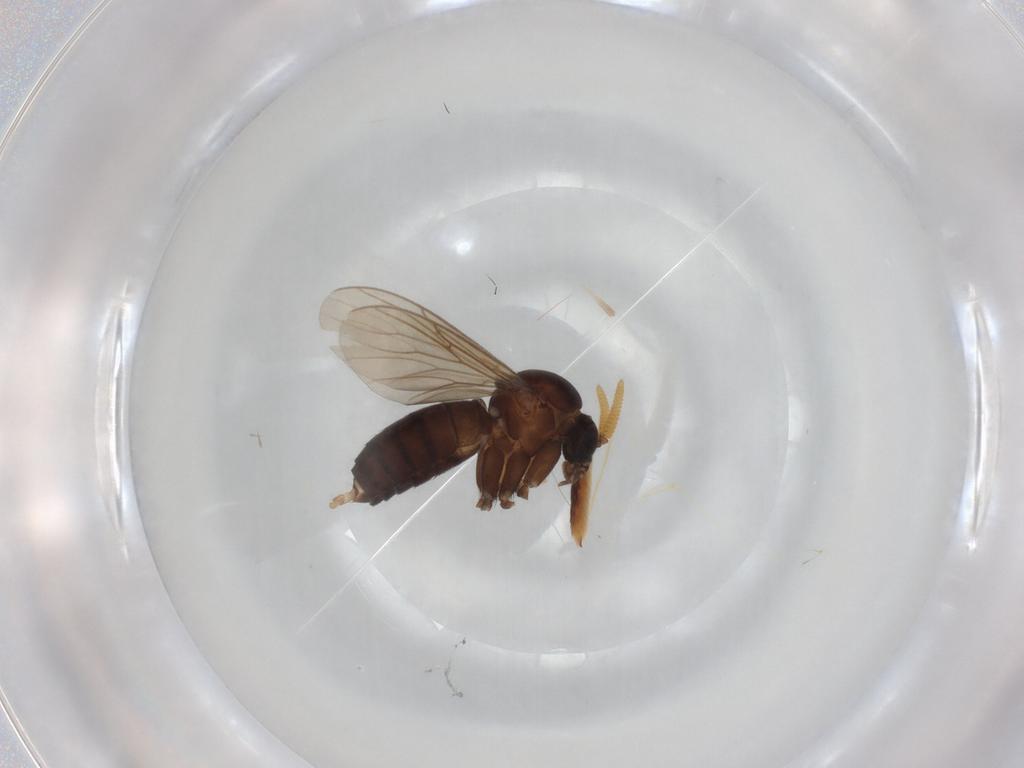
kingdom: Animalia
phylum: Arthropoda
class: Insecta
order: Diptera
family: Cecidomyiidae
